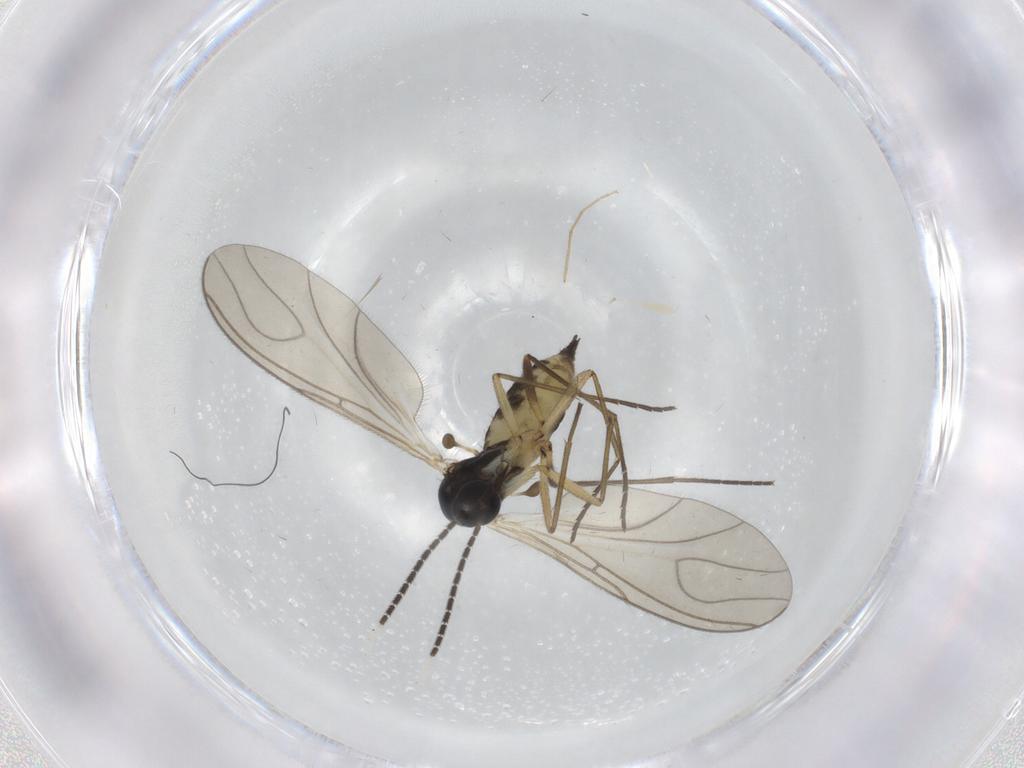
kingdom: Animalia
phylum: Arthropoda
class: Insecta
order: Diptera
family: Sciaridae
